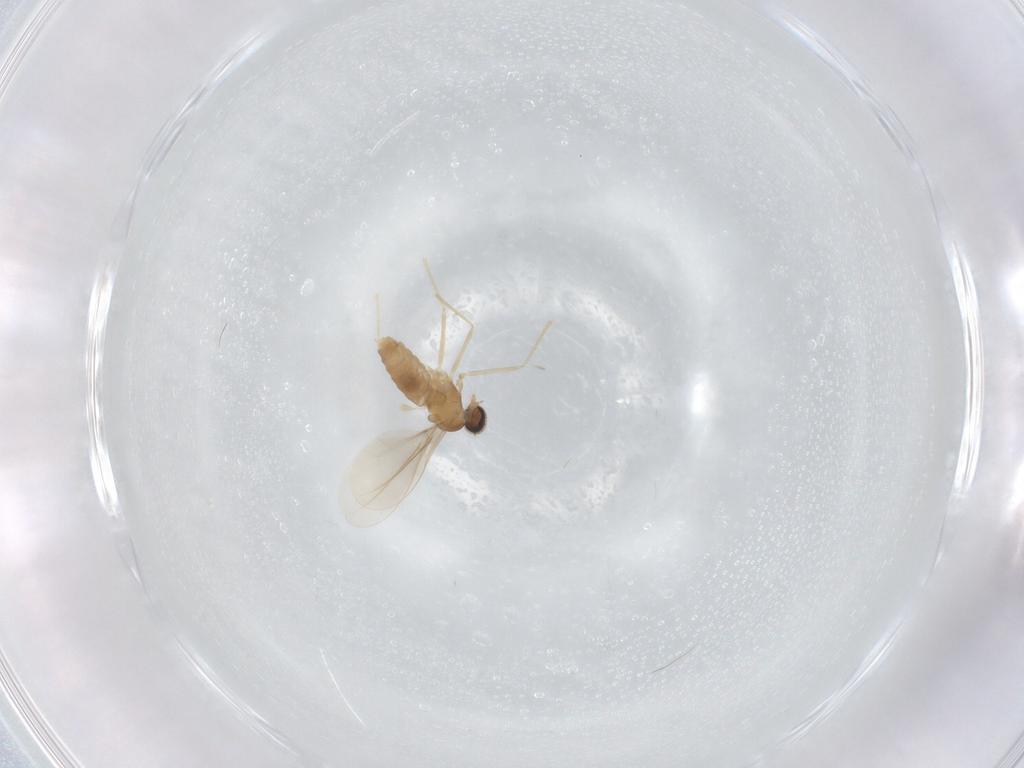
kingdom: Animalia
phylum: Arthropoda
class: Insecta
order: Diptera
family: Cecidomyiidae
